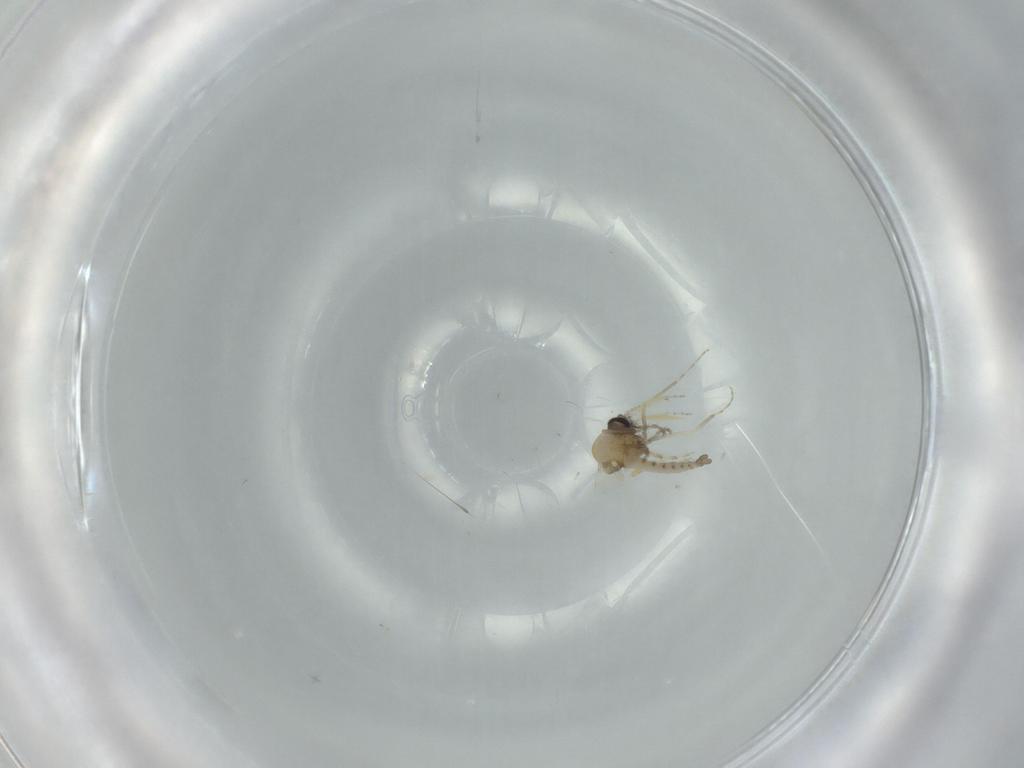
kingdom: Animalia
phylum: Arthropoda
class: Insecta
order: Diptera
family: Ceratopogonidae
